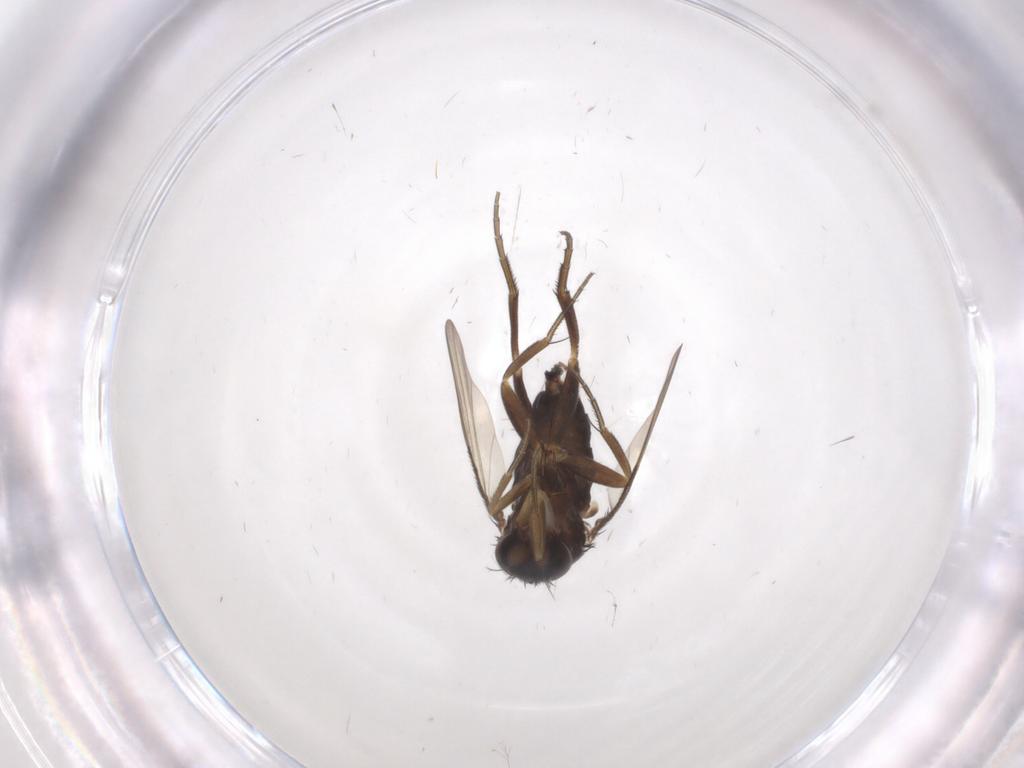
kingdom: Animalia
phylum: Arthropoda
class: Insecta
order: Diptera
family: Phoridae
